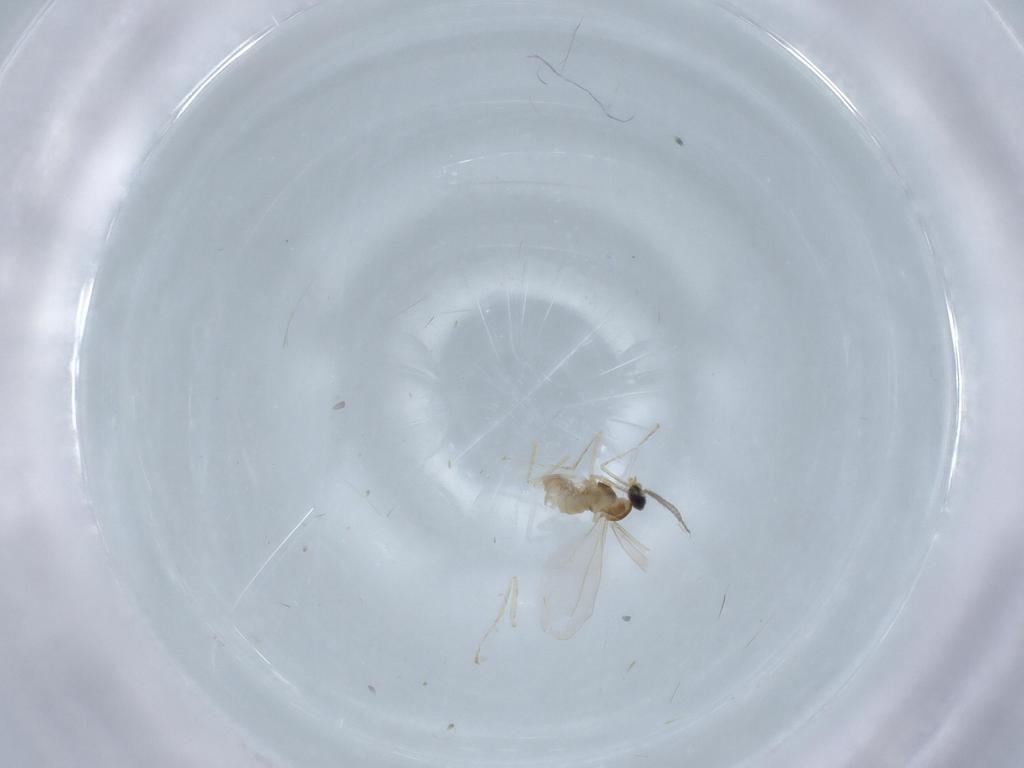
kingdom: Animalia
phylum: Arthropoda
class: Insecta
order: Diptera
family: Cecidomyiidae
